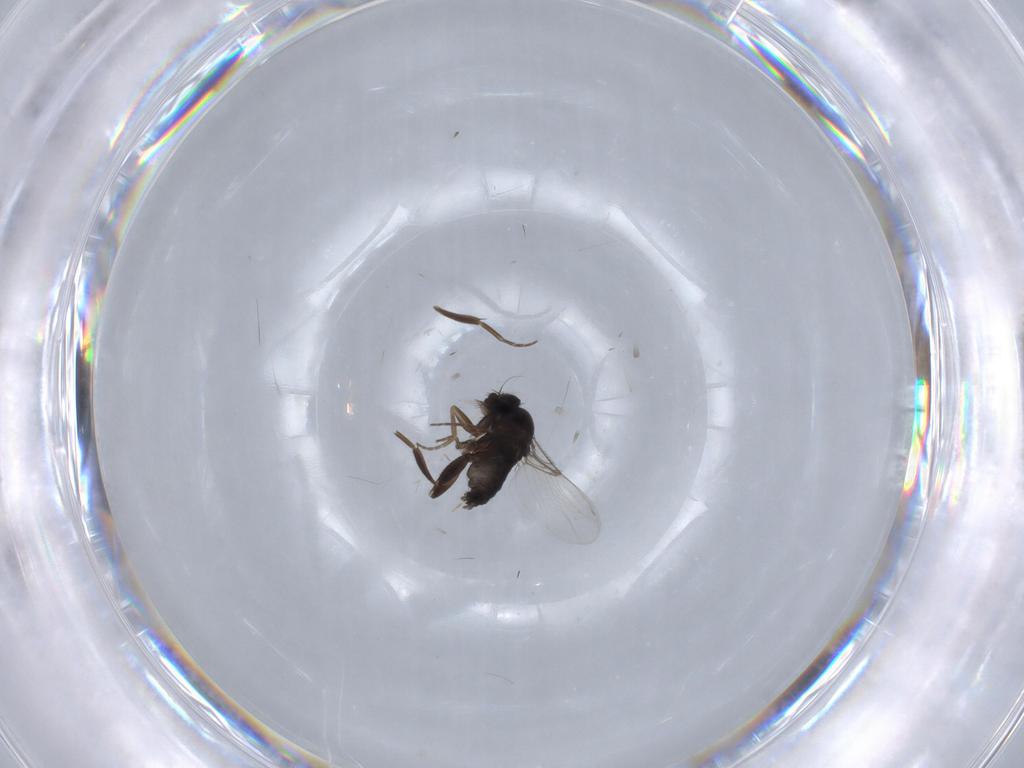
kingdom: Animalia
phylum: Arthropoda
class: Insecta
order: Diptera
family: Phoridae
